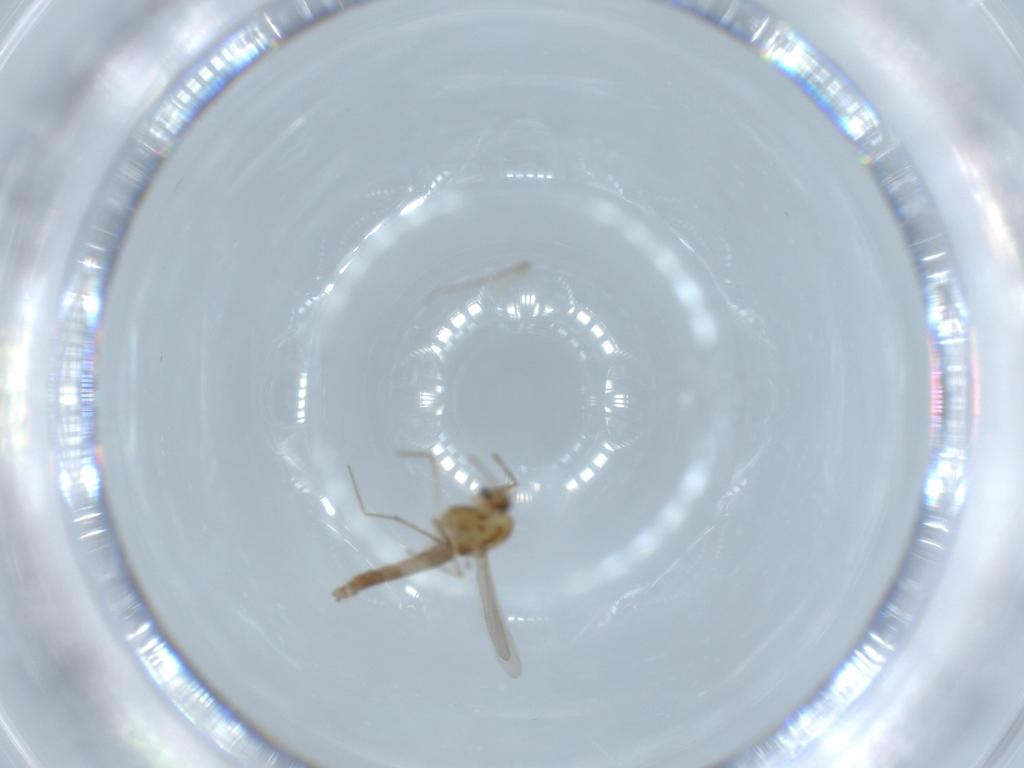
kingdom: Animalia
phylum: Arthropoda
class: Insecta
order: Diptera
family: Chironomidae
